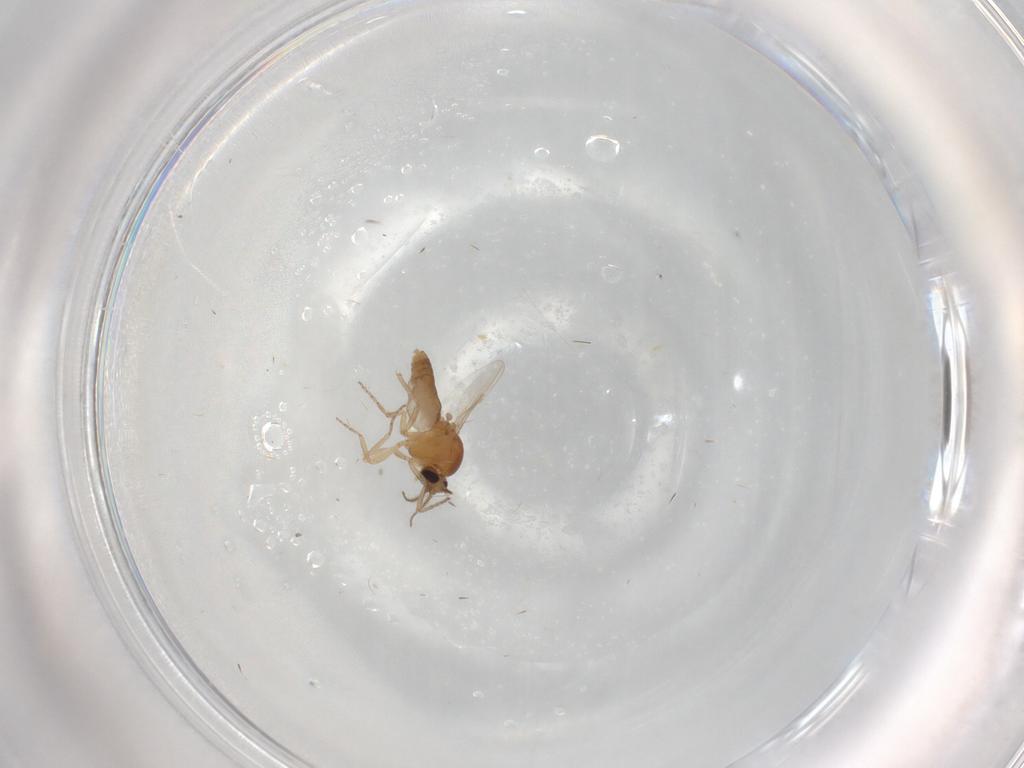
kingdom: Animalia
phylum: Arthropoda
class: Insecta
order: Diptera
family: Ceratopogonidae
